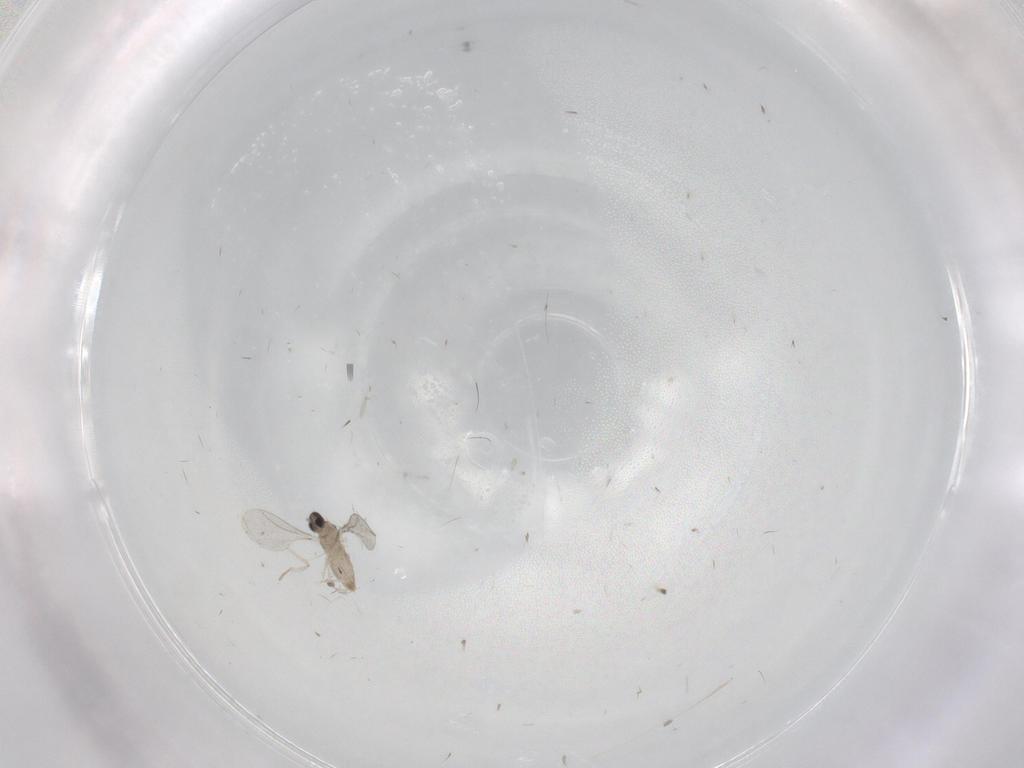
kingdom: Animalia
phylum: Arthropoda
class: Insecta
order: Diptera
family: Cecidomyiidae
